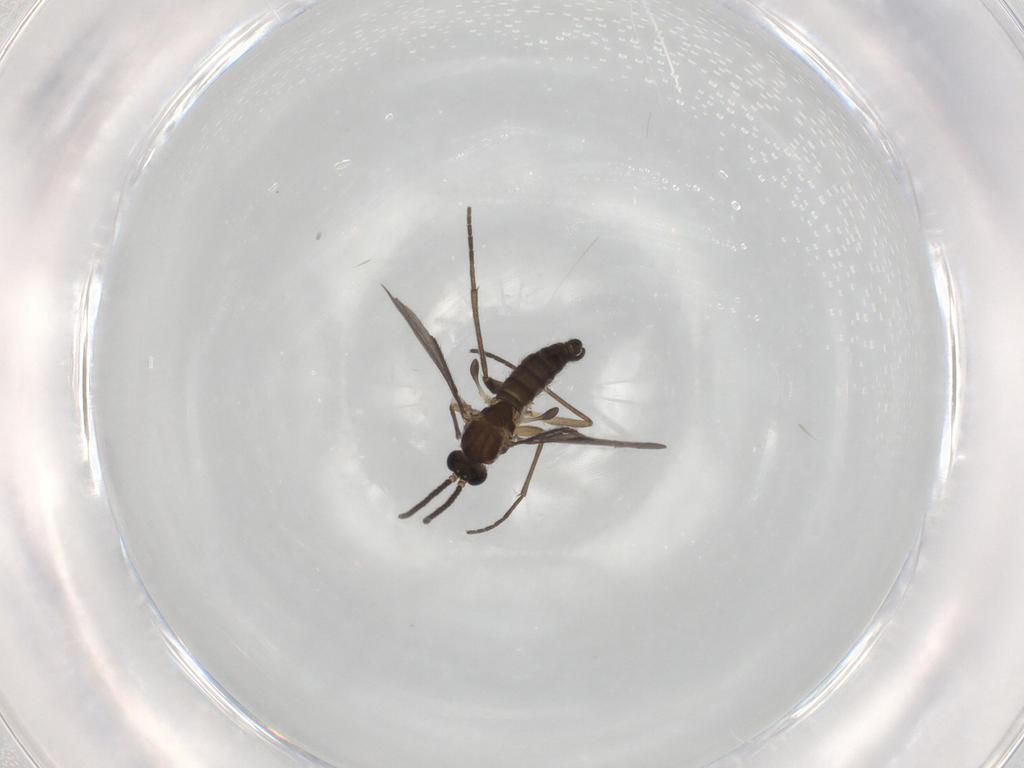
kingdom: Animalia
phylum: Arthropoda
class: Insecta
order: Diptera
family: Sciaridae
